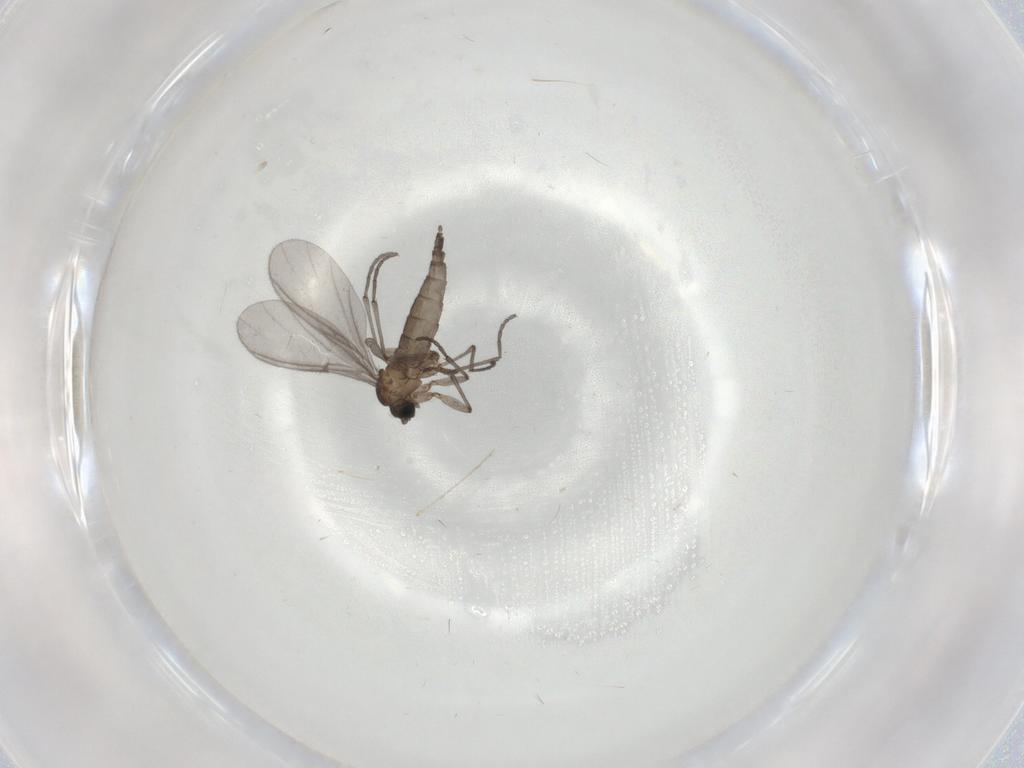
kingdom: Animalia
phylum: Arthropoda
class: Insecta
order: Diptera
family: Sciaridae
